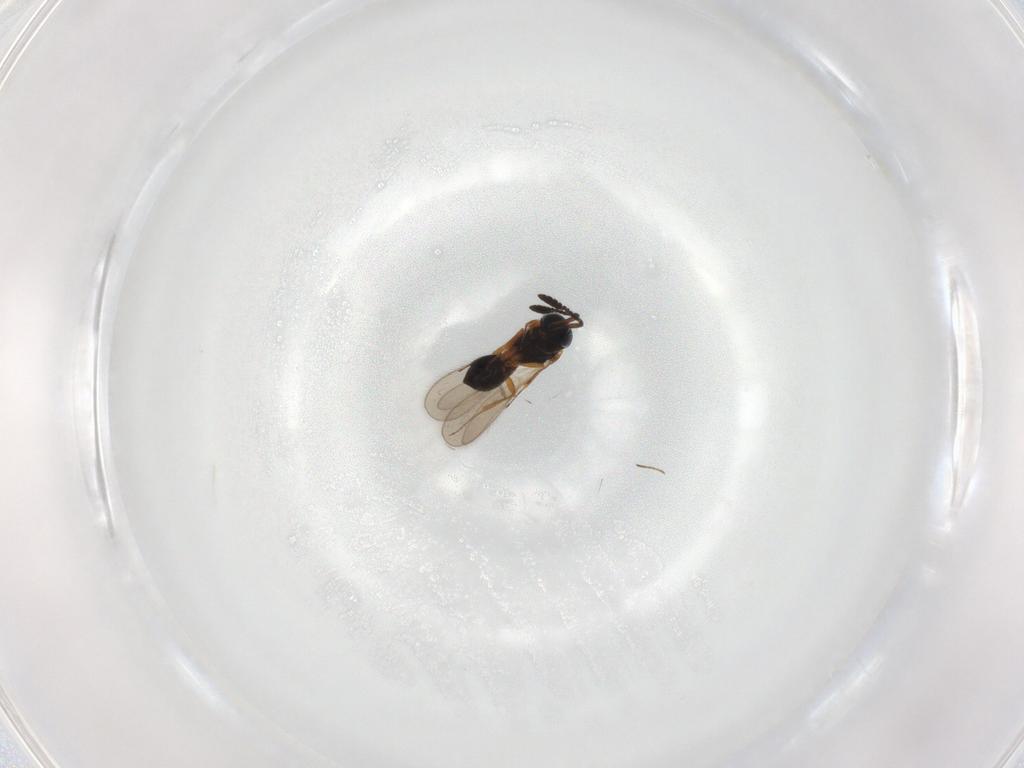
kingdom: Animalia
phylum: Arthropoda
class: Insecta
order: Hymenoptera
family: Scelionidae
